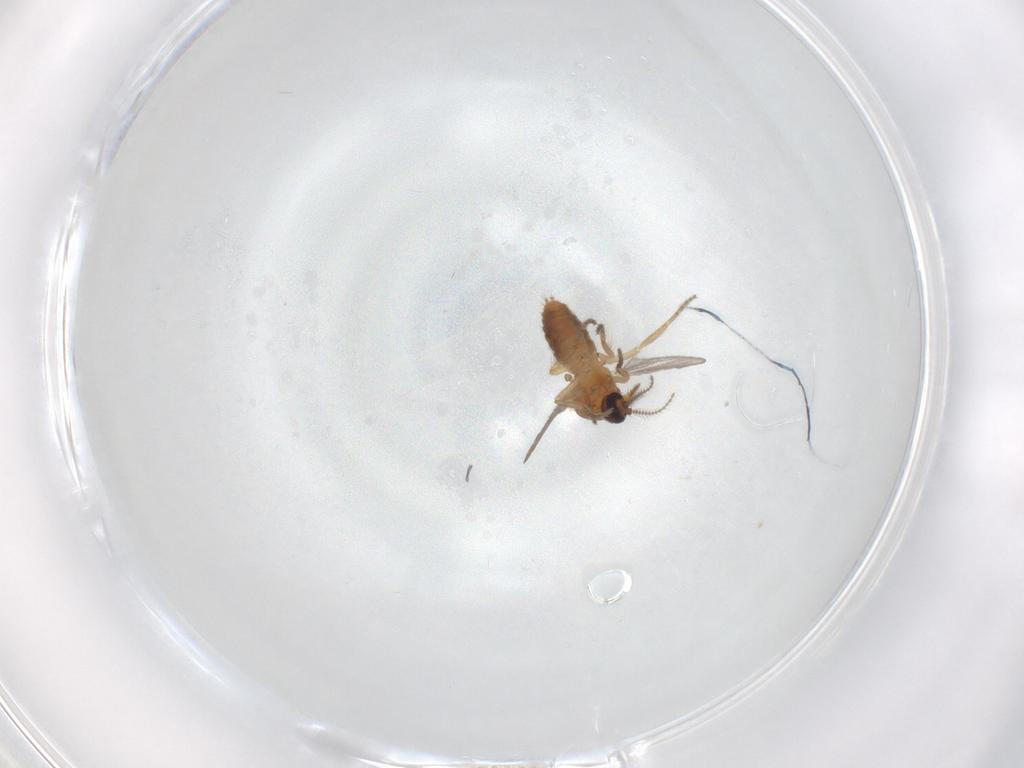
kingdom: Animalia
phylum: Arthropoda
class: Insecta
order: Diptera
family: Ceratopogonidae
